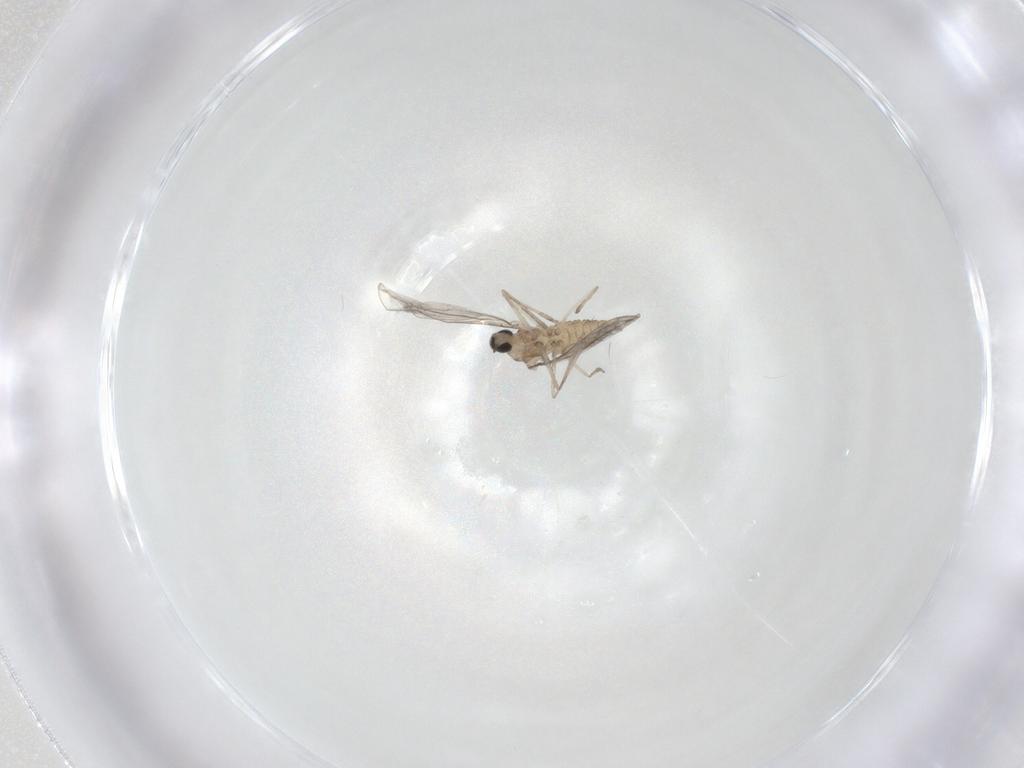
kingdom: Animalia
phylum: Arthropoda
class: Insecta
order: Diptera
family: Cecidomyiidae
